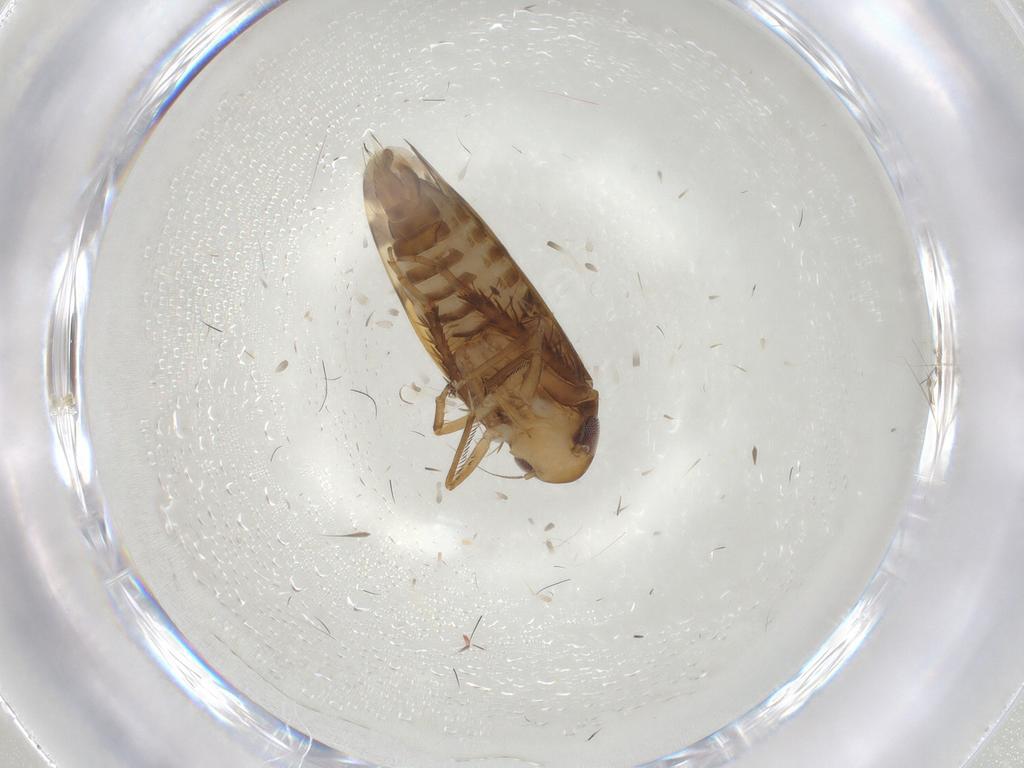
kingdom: Animalia
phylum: Arthropoda
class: Insecta
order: Hemiptera
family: Cicadellidae
